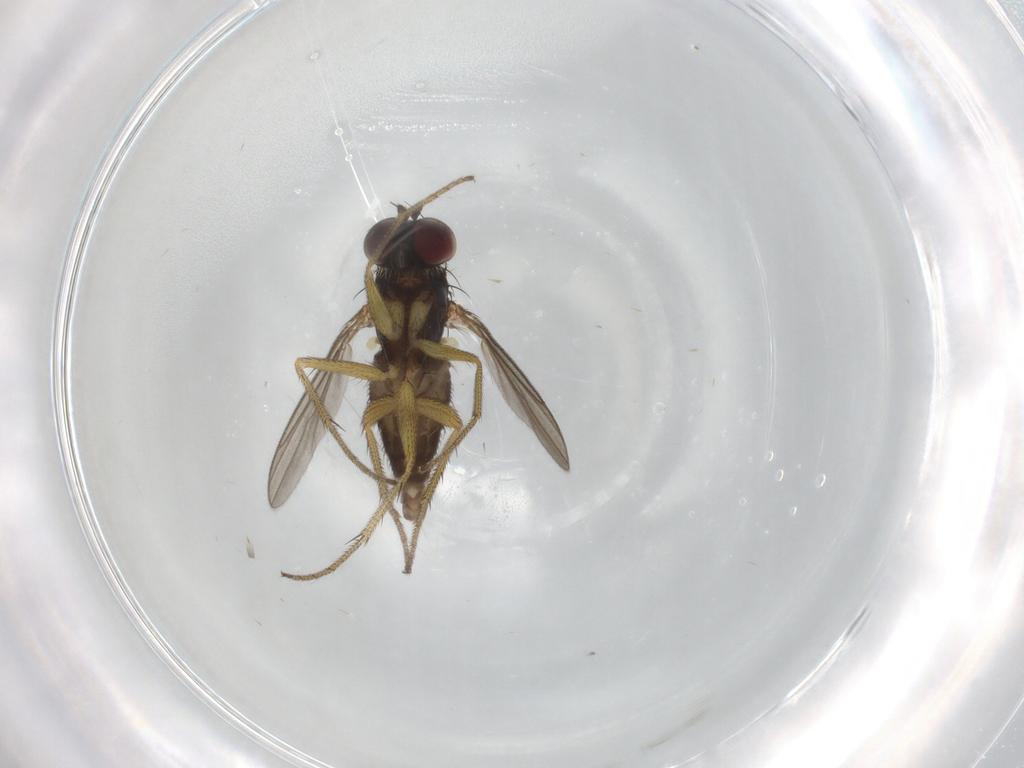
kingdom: Animalia
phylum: Arthropoda
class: Insecta
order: Diptera
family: Dolichopodidae
